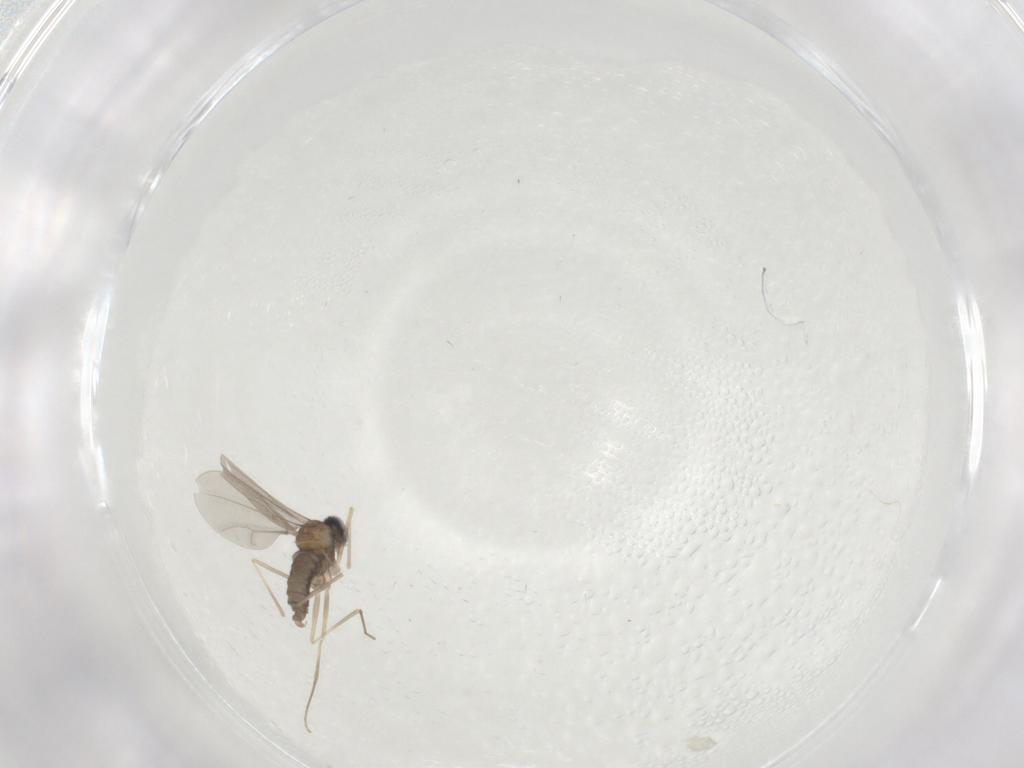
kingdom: Animalia
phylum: Arthropoda
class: Insecta
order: Diptera
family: Cecidomyiidae
